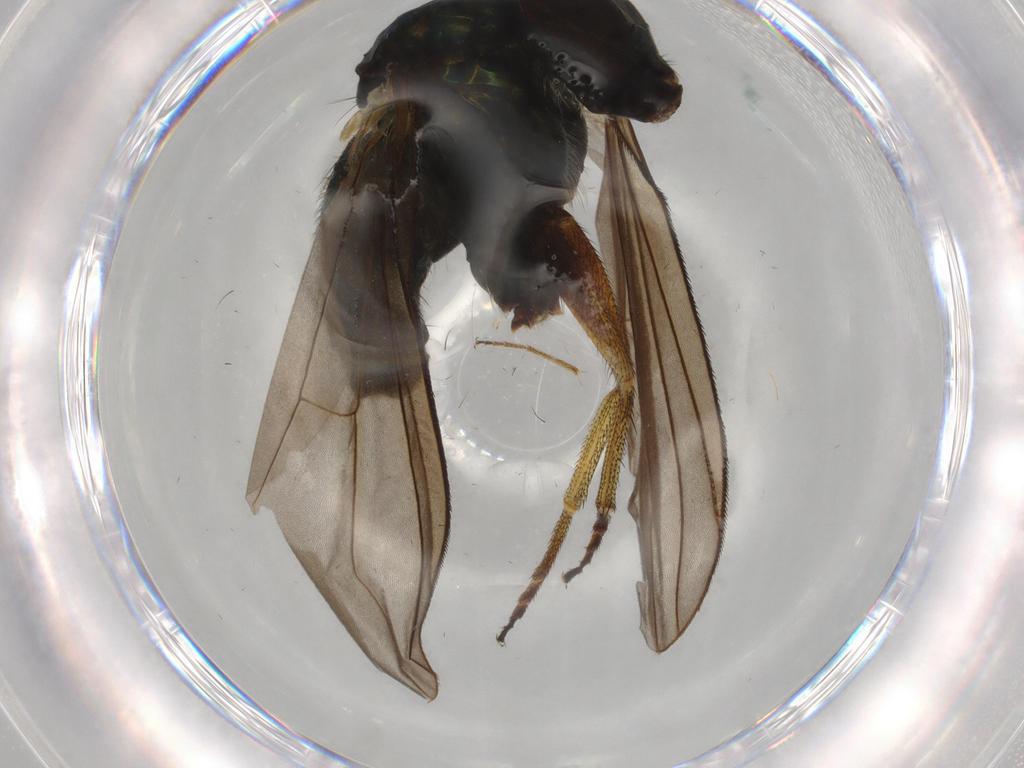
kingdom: Animalia
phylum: Arthropoda
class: Insecta
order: Diptera
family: Dolichopodidae
